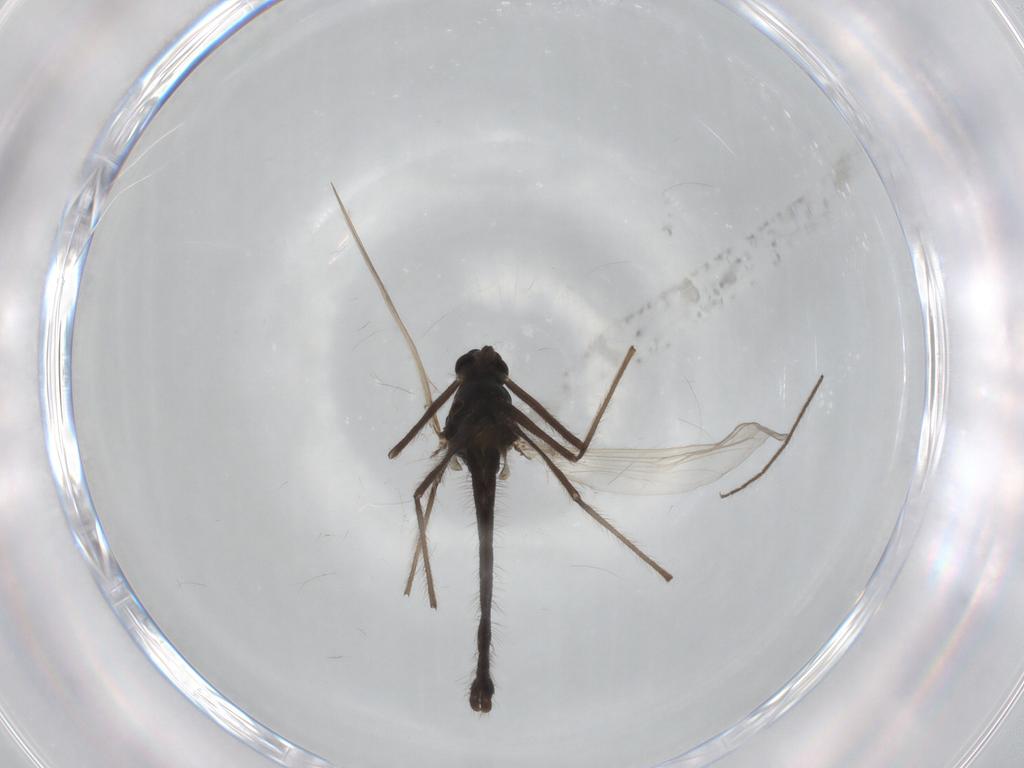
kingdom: Animalia
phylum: Arthropoda
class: Insecta
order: Diptera
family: Chironomidae
